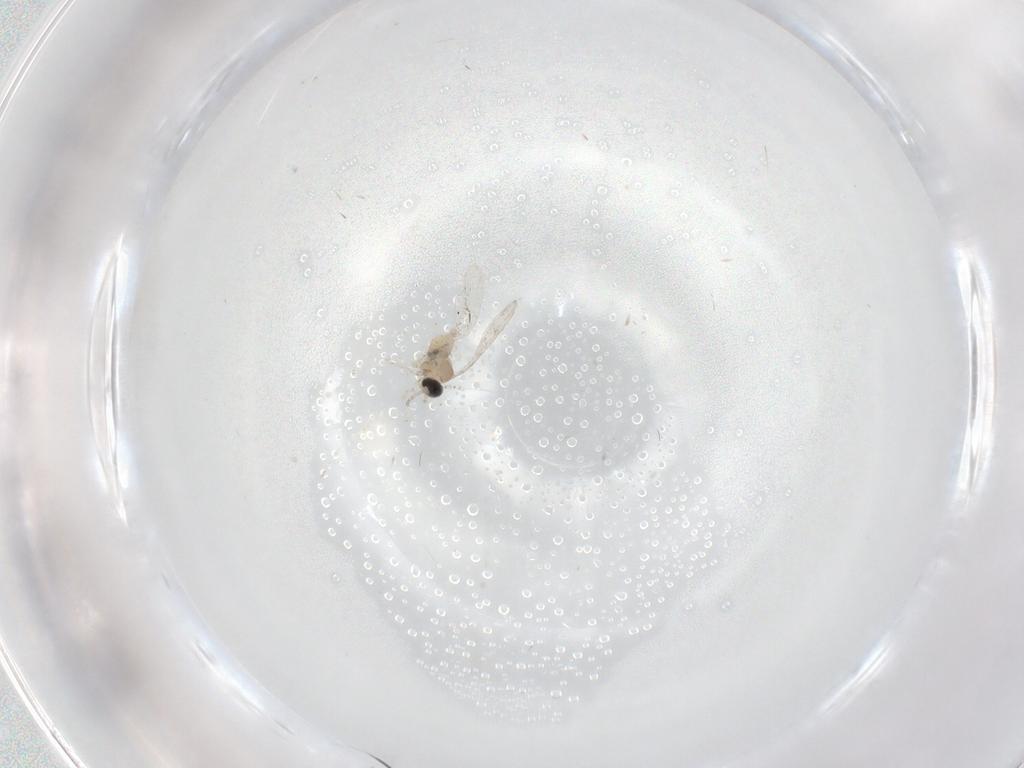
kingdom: Animalia
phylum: Arthropoda
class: Insecta
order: Diptera
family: Cecidomyiidae
